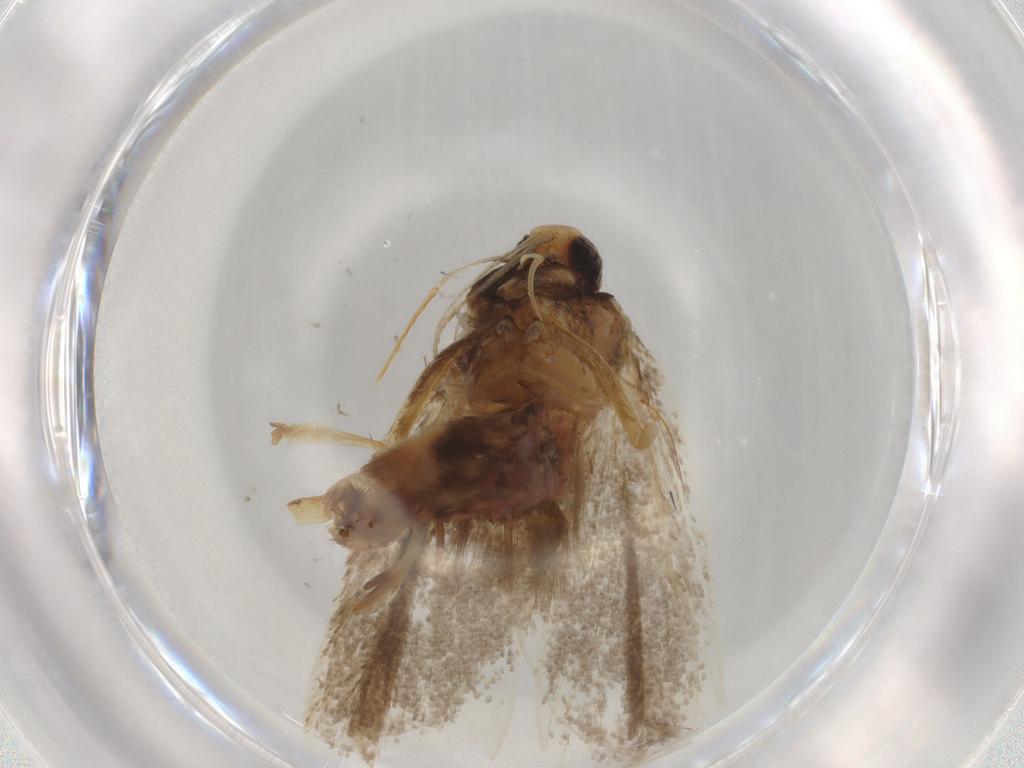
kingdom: Animalia
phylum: Arthropoda
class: Insecta
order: Lepidoptera
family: Lecithoceridae
